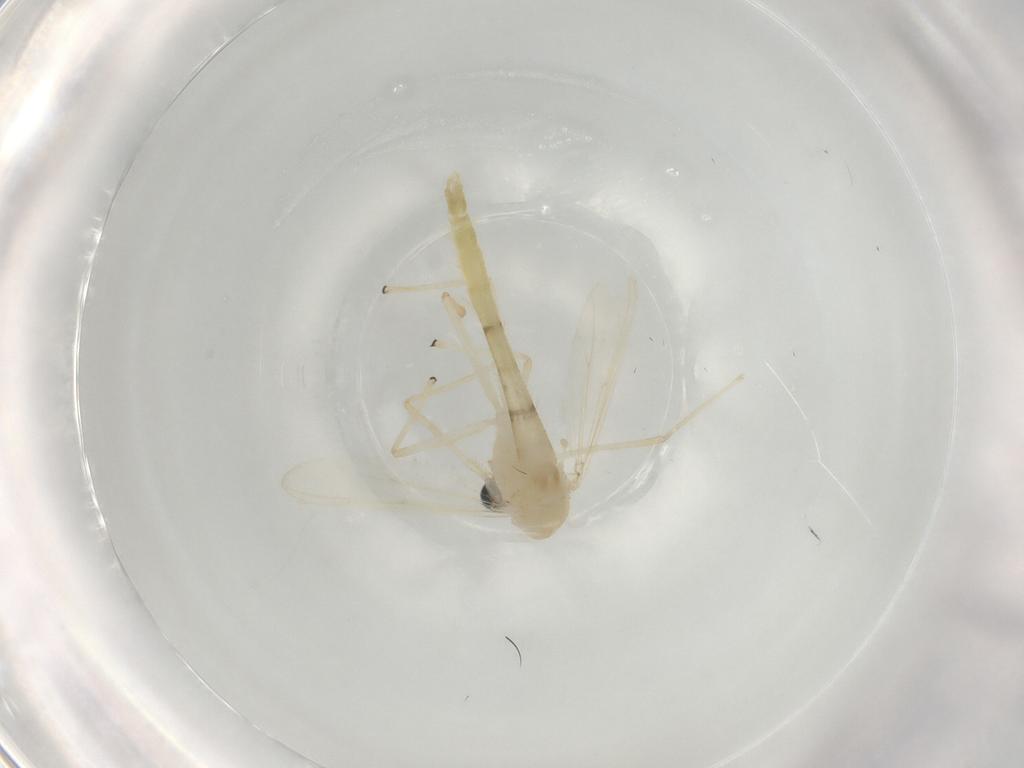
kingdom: Animalia
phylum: Arthropoda
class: Insecta
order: Diptera
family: Chironomidae
